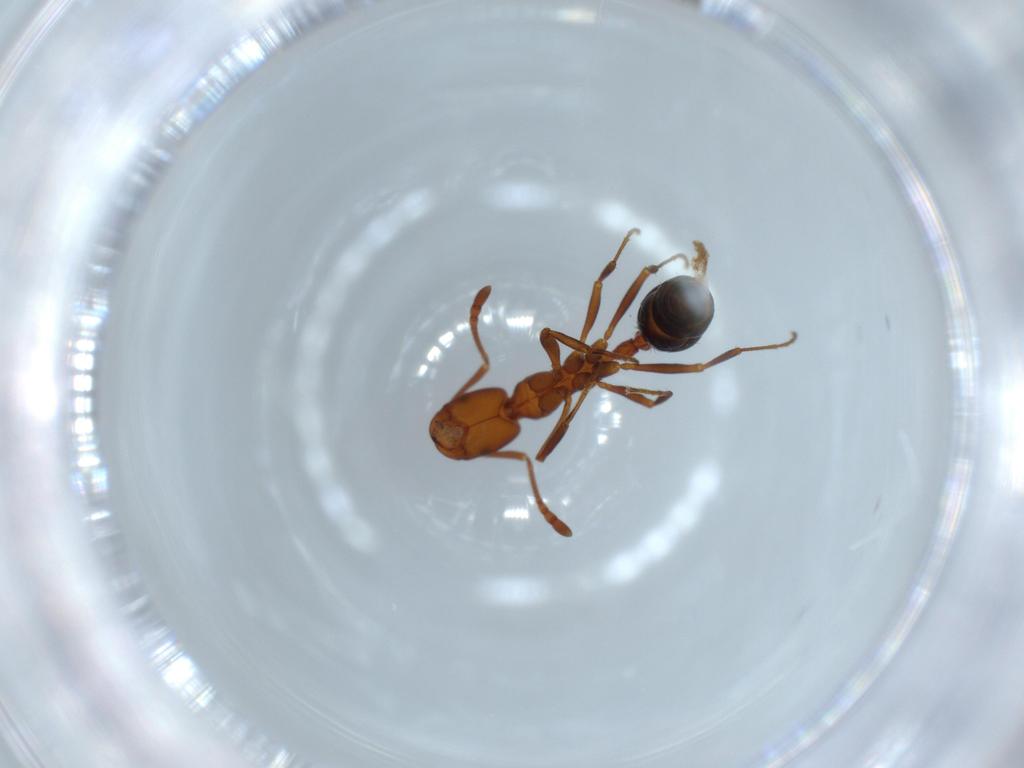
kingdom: Animalia
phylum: Arthropoda
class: Insecta
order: Hymenoptera
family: Formicidae
